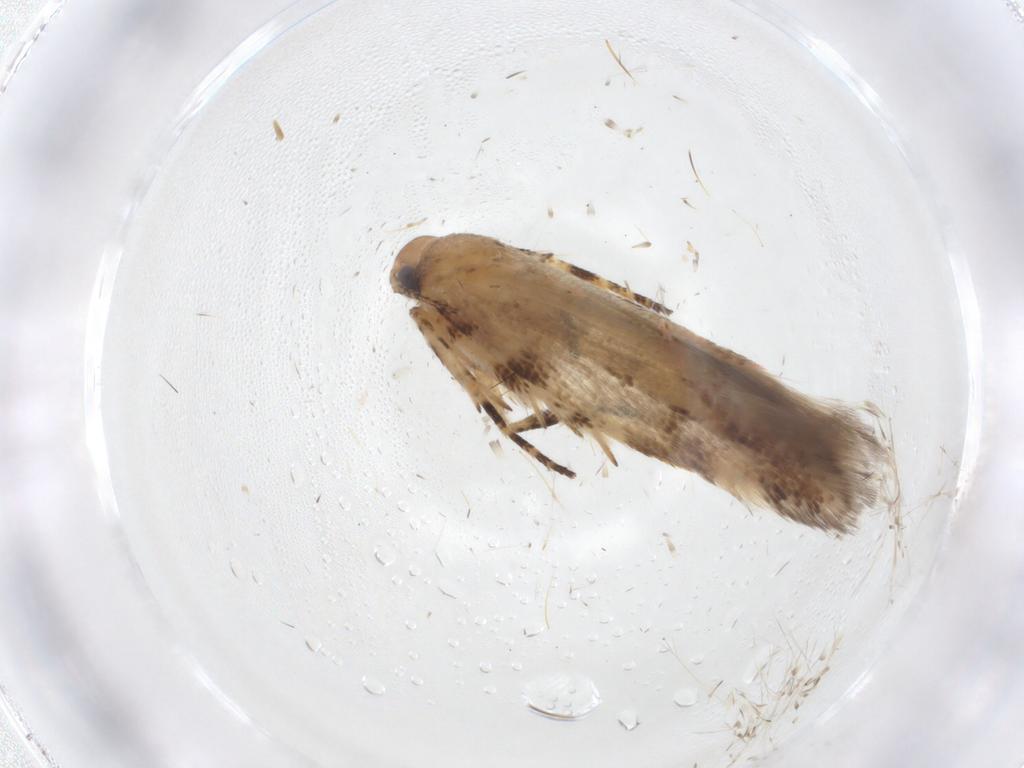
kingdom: Animalia
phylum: Arthropoda
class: Insecta
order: Lepidoptera
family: Gelechiidae
